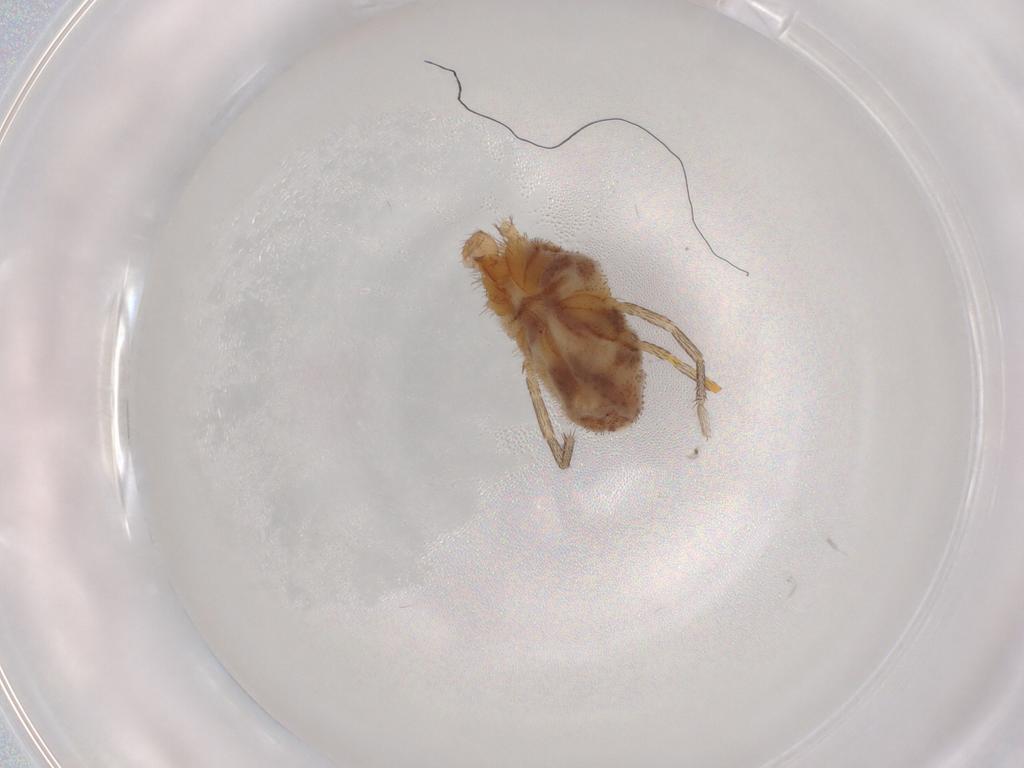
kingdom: Animalia
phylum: Arthropoda
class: Arachnida
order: Trombidiformes
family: Erythraeidae
